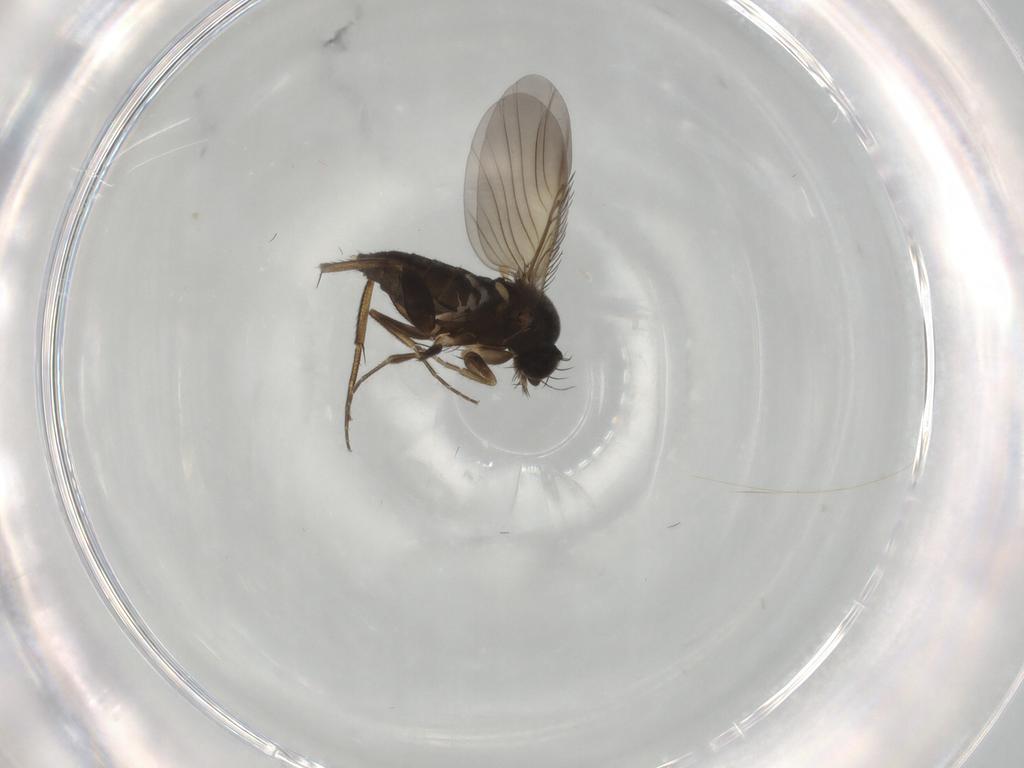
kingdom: Animalia
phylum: Arthropoda
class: Insecta
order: Diptera
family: Phoridae
